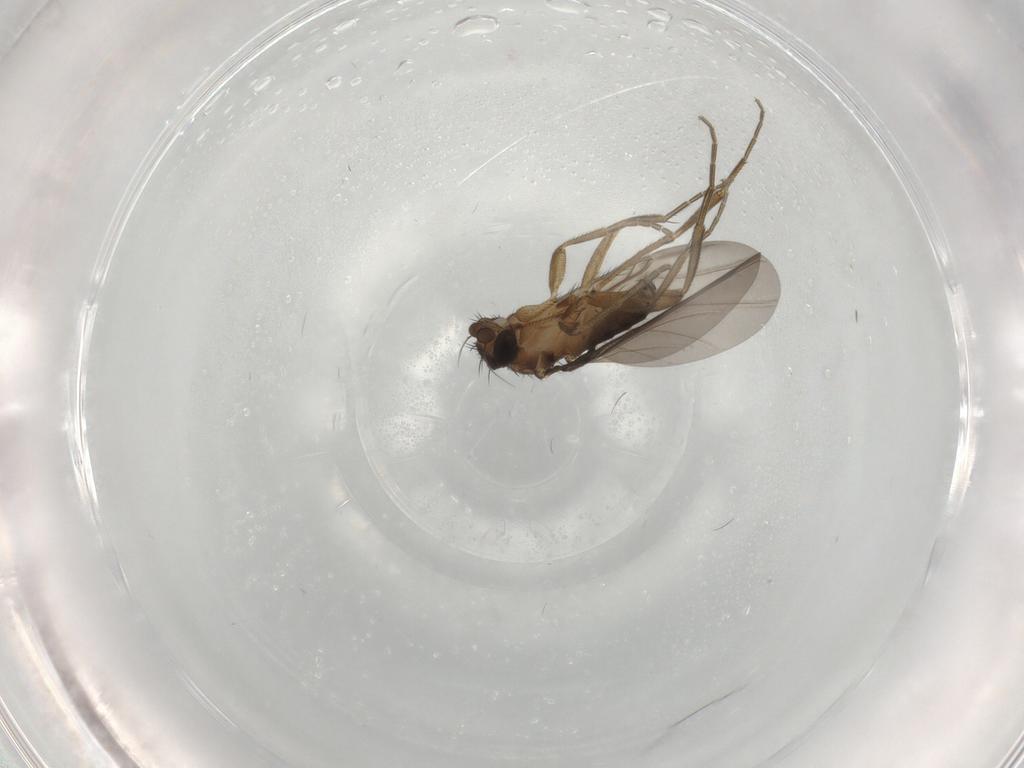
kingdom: Animalia
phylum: Arthropoda
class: Insecta
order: Diptera
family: Phoridae
